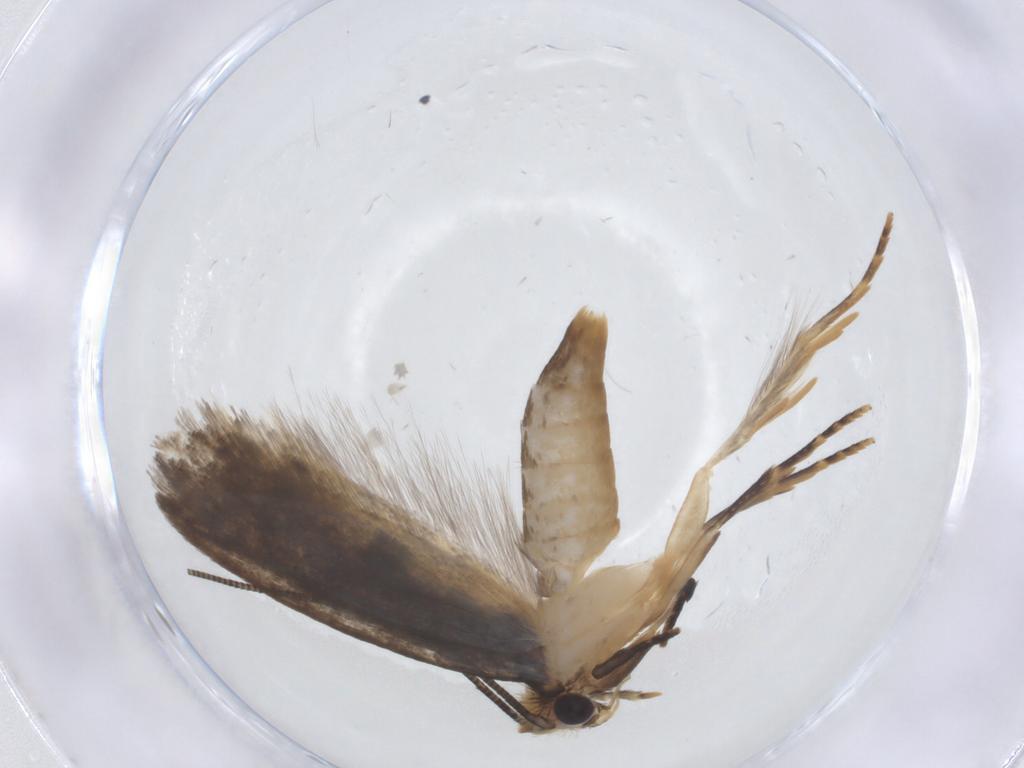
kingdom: Animalia
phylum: Arthropoda
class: Insecta
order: Lepidoptera
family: Tineidae
